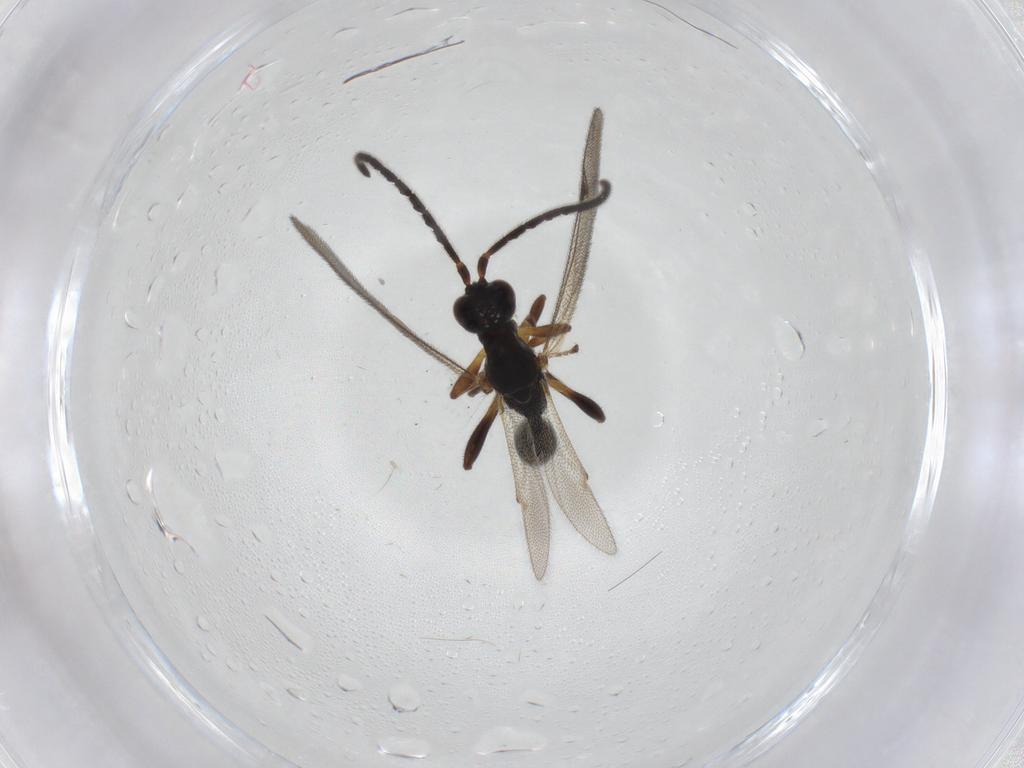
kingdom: Animalia
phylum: Arthropoda
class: Insecta
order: Hymenoptera
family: Proctotrupidae
